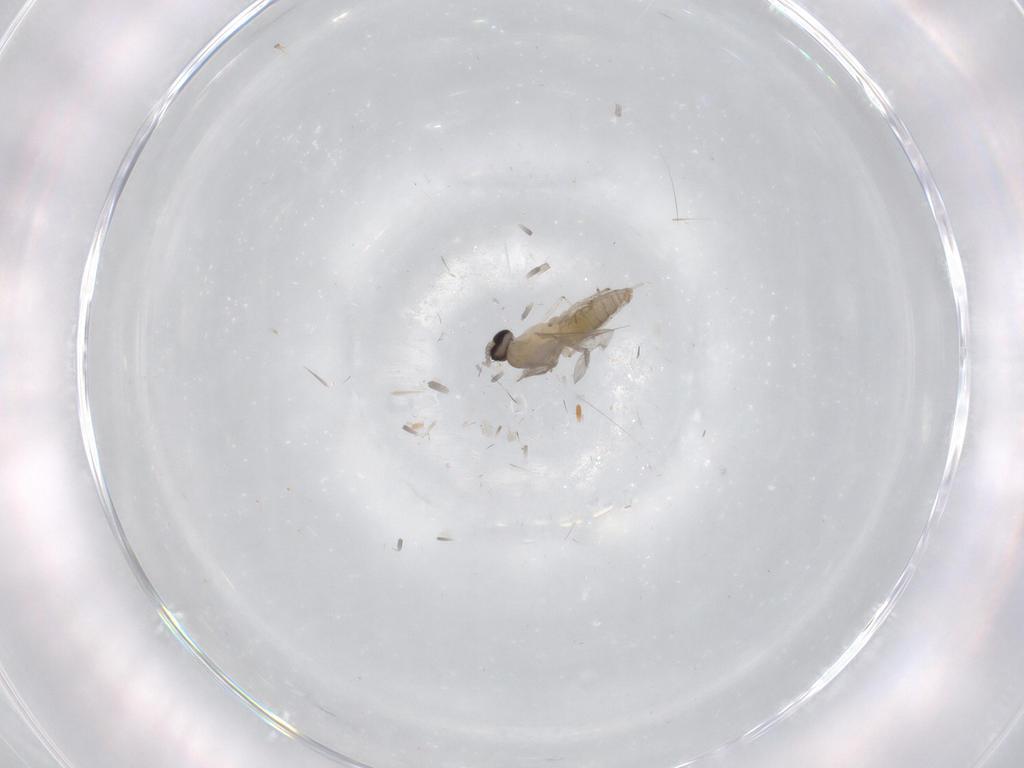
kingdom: Animalia
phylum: Arthropoda
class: Insecta
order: Diptera
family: Cecidomyiidae
